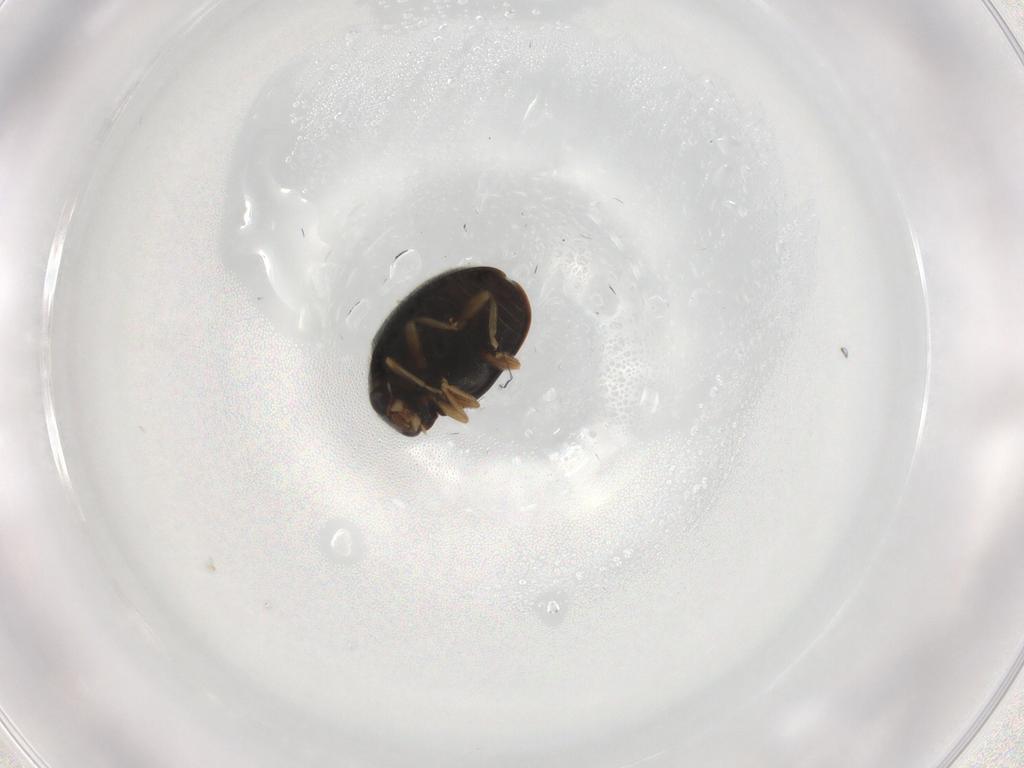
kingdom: Animalia
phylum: Arthropoda
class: Insecta
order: Coleoptera
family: Coccinellidae
